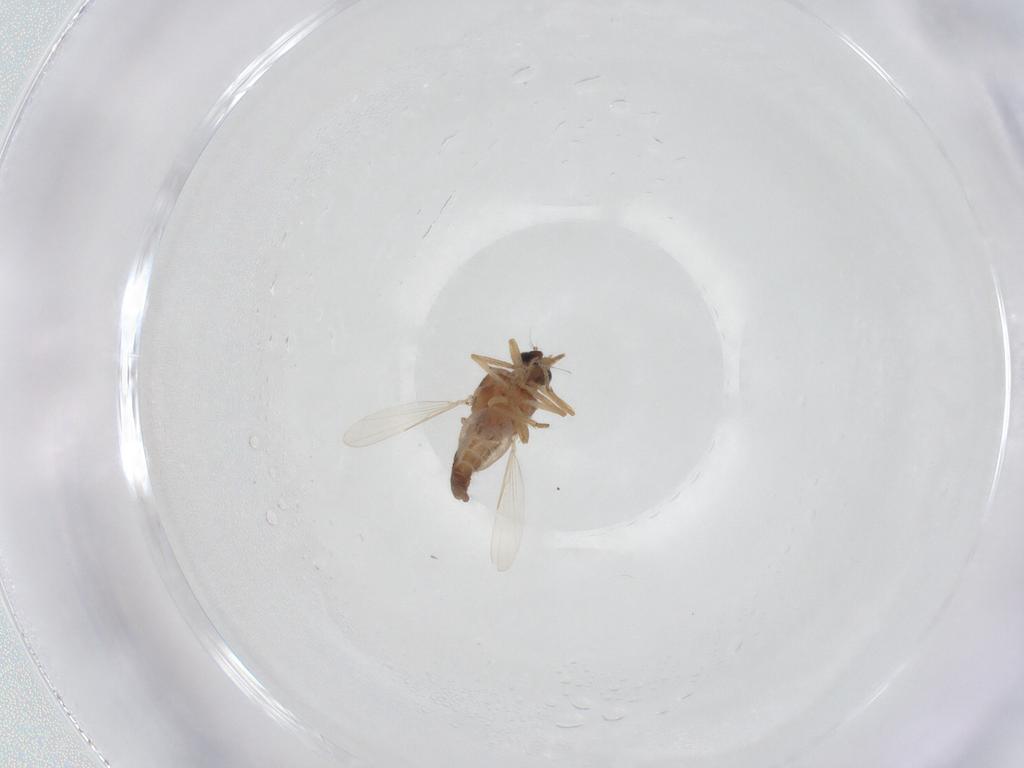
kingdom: Animalia
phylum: Arthropoda
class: Insecta
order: Diptera
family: Ceratopogonidae
